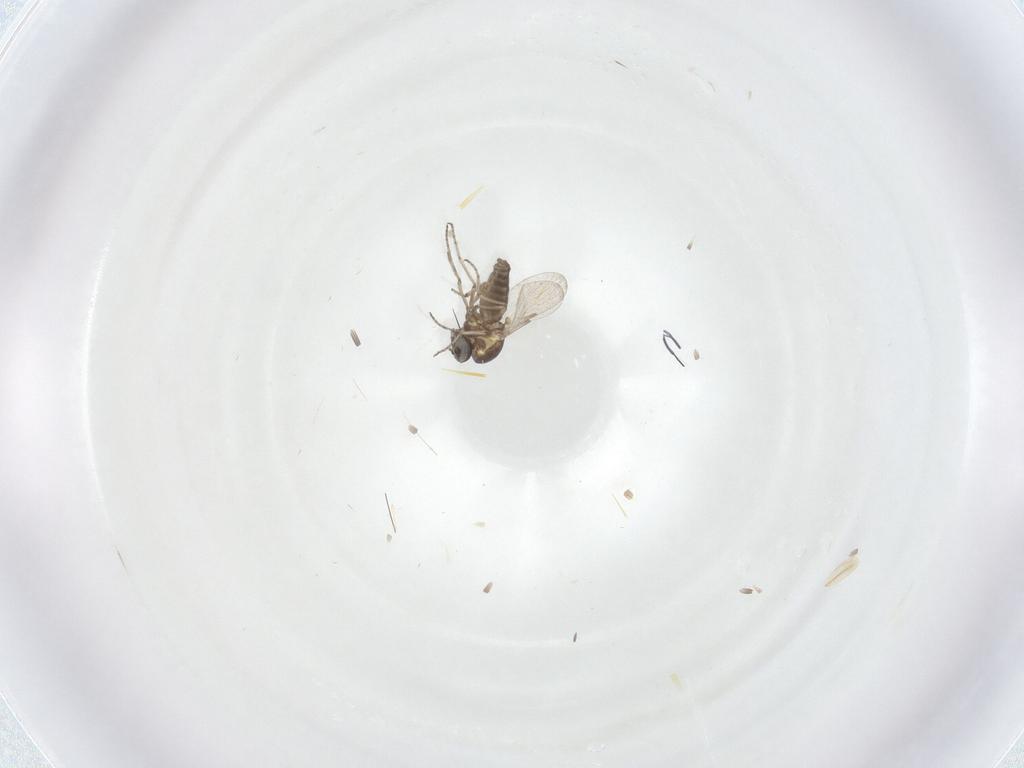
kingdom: Animalia
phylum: Arthropoda
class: Insecta
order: Diptera
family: Ceratopogonidae
